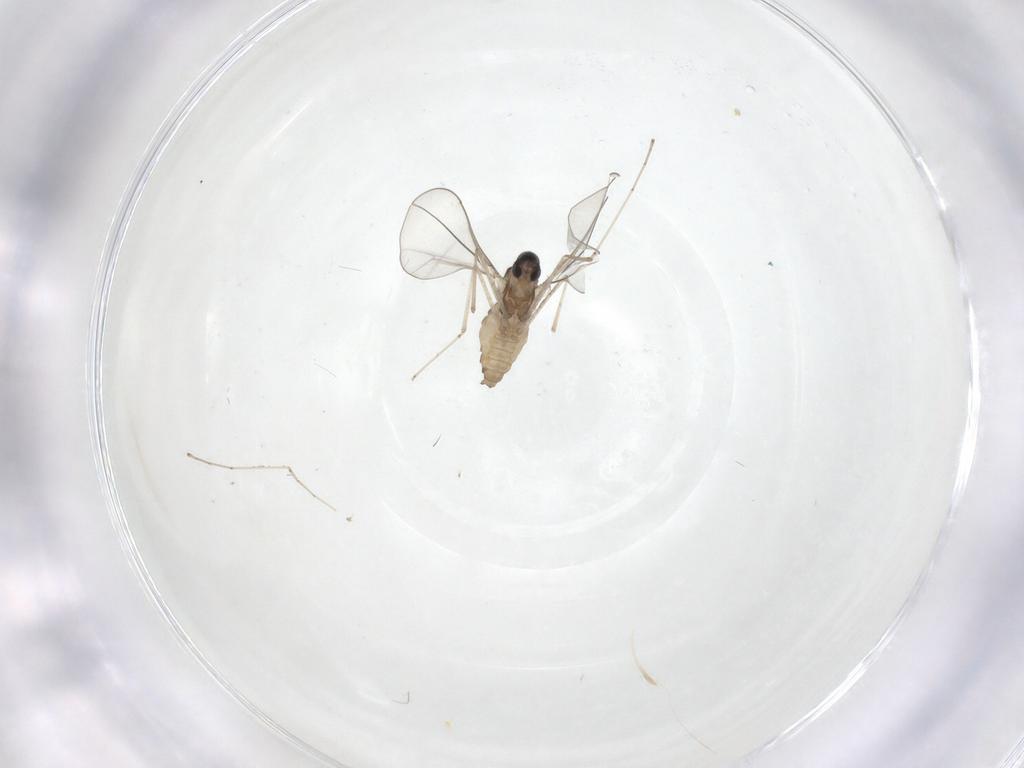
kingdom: Animalia
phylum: Arthropoda
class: Insecta
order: Diptera
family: Cecidomyiidae
